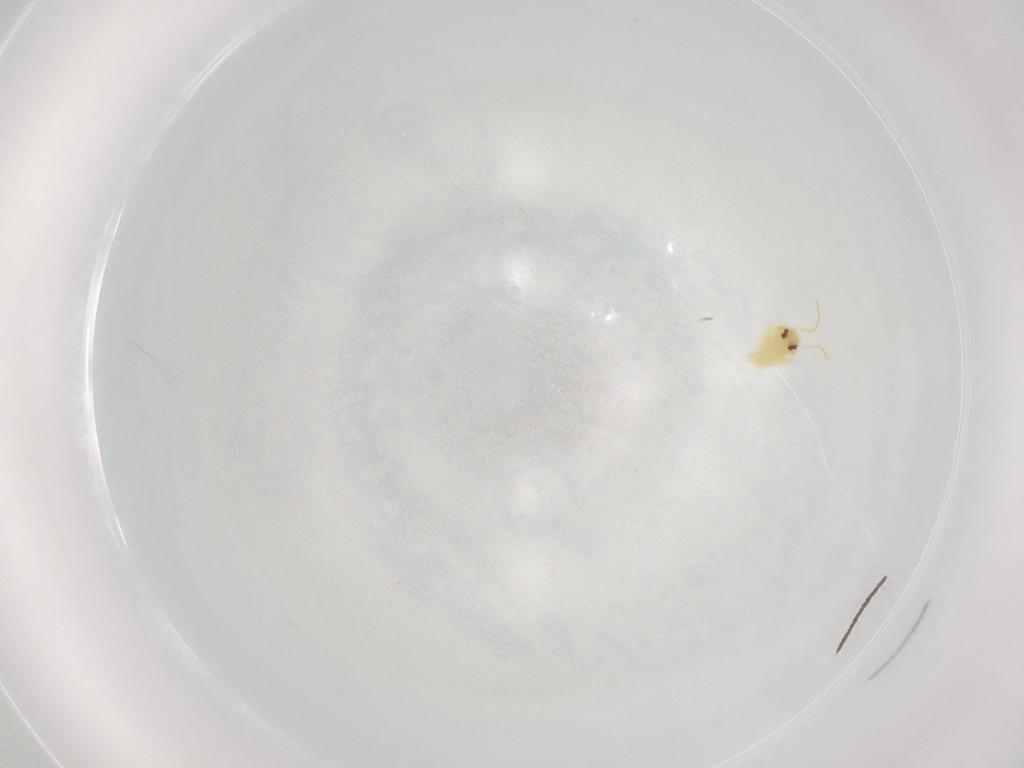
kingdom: Animalia
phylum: Arthropoda
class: Insecta
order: Hemiptera
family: Aleyrodidae
